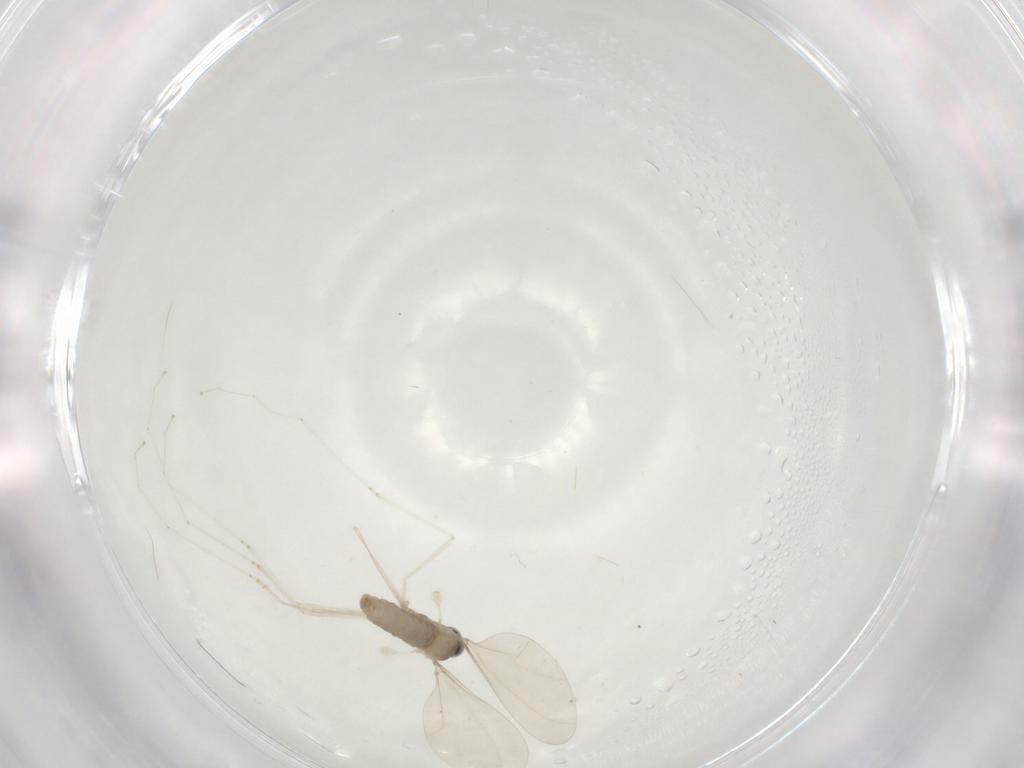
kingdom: Animalia
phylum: Arthropoda
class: Insecta
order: Diptera
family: Cecidomyiidae
